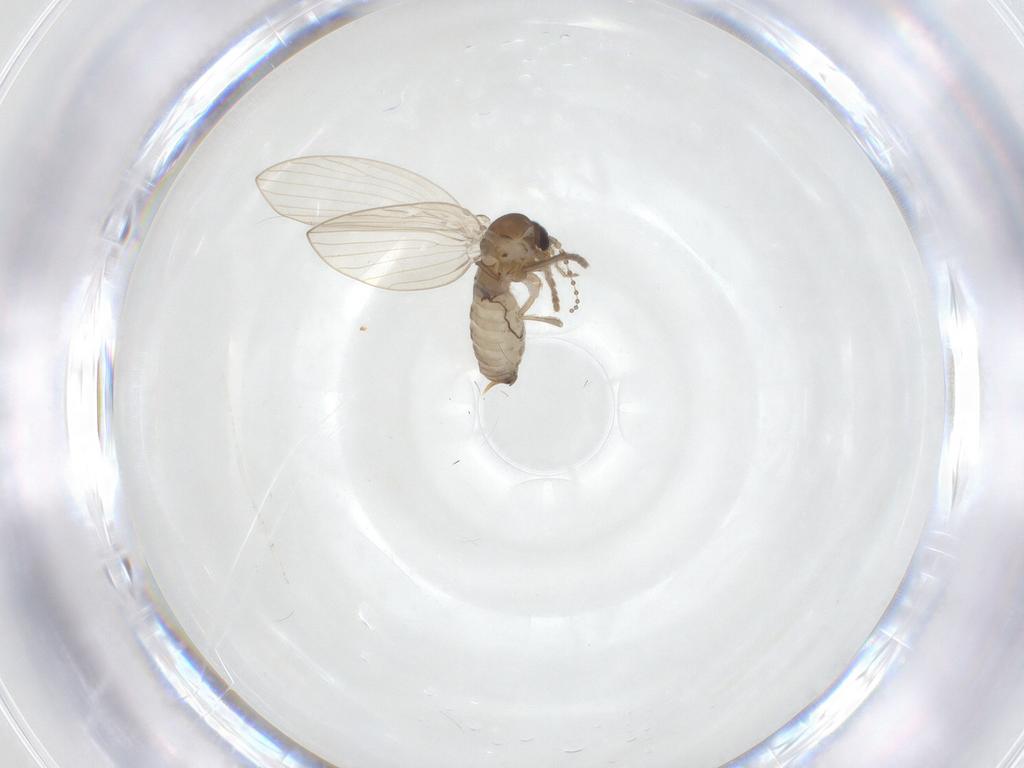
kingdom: Animalia
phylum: Arthropoda
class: Insecta
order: Diptera
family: Psychodidae
